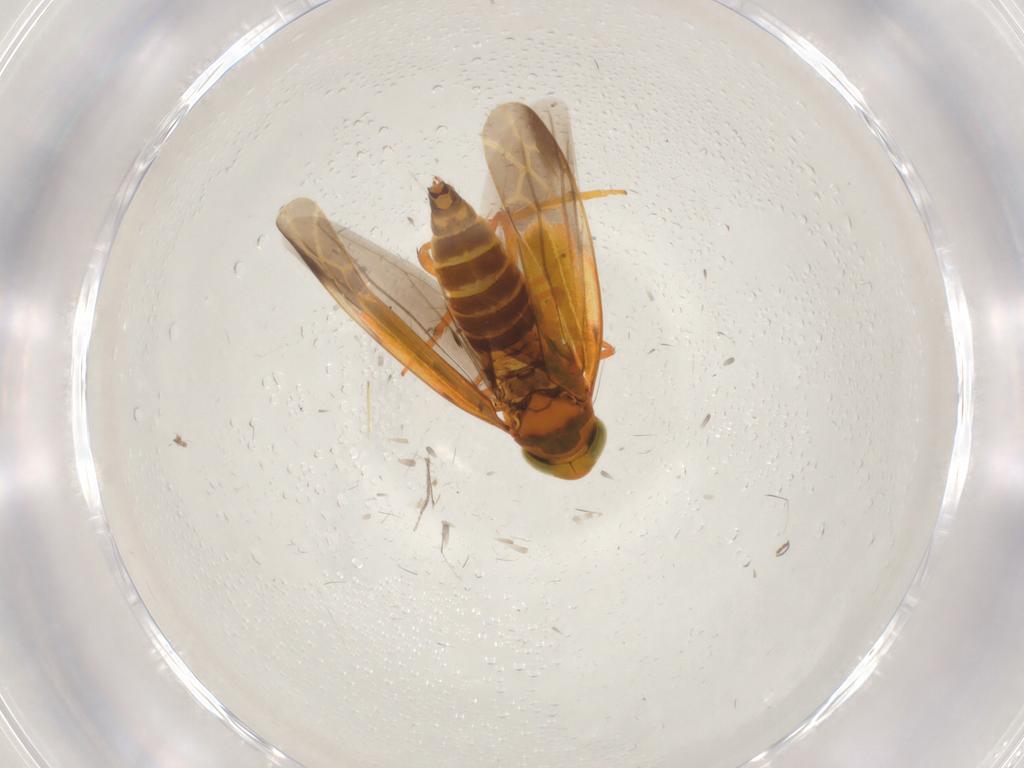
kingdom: Animalia
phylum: Arthropoda
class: Insecta
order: Hemiptera
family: Cicadellidae
